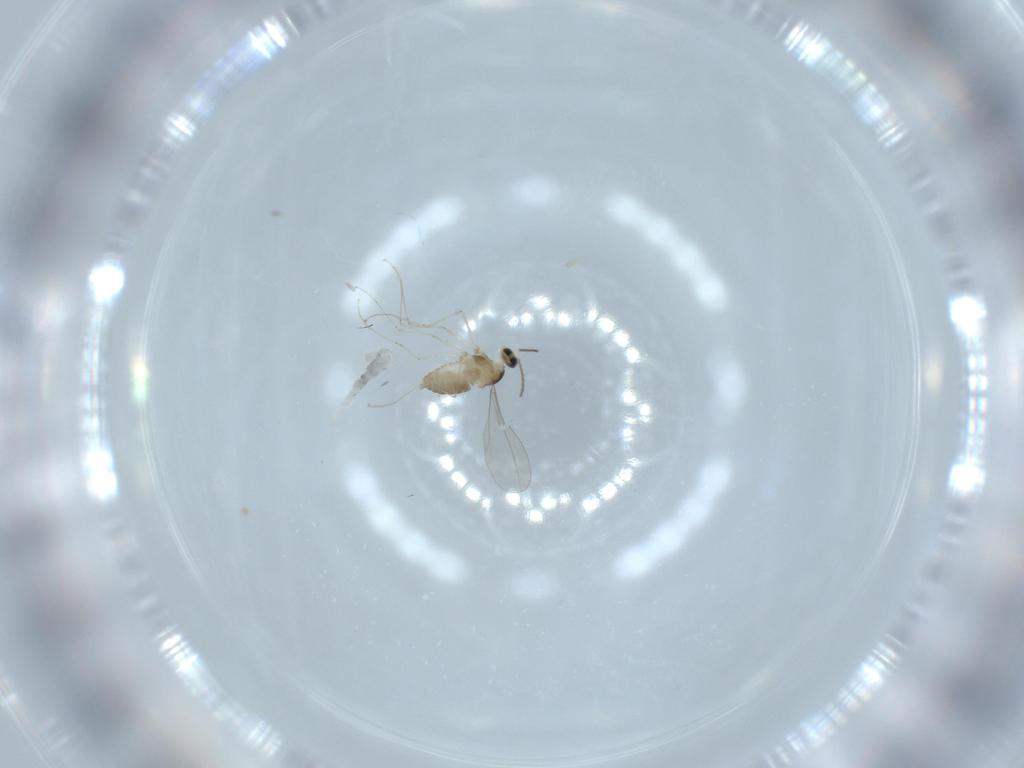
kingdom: Animalia
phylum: Arthropoda
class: Insecta
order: Diptera
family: Cecidomyiidae
